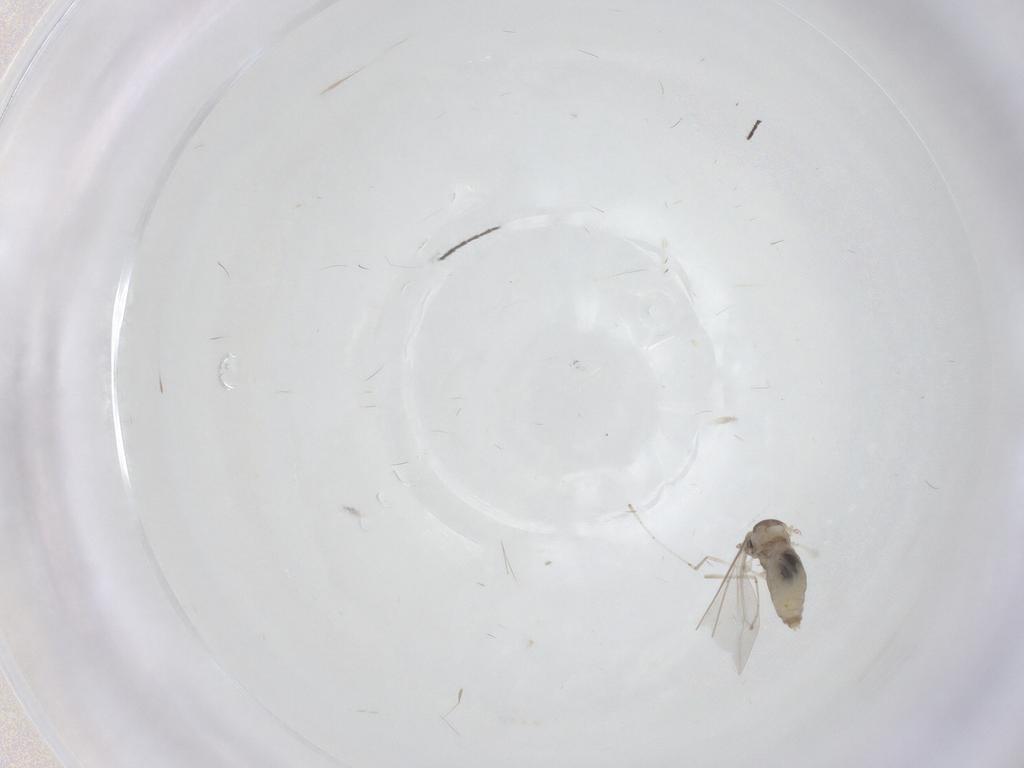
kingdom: Animalia
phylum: Arthropoda
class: Insecta
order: Diptera
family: Cecidomyiidae
